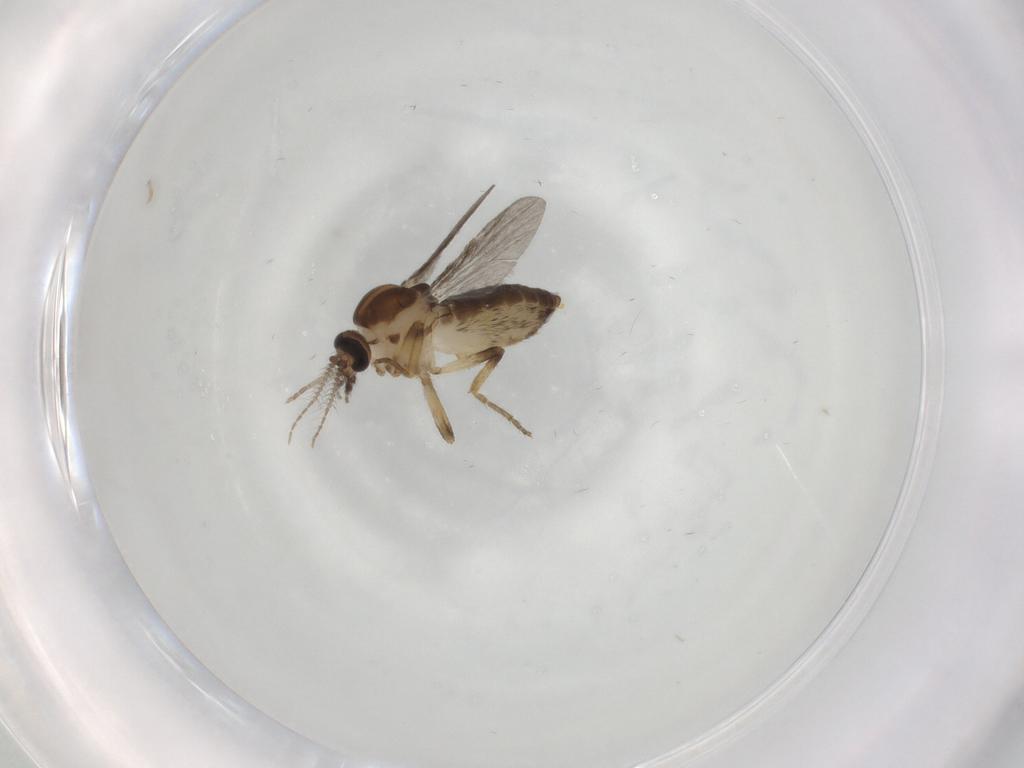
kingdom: Animalia
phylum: Arthropoda
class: Insecta
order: Diptera
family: Ceratopogonidae
